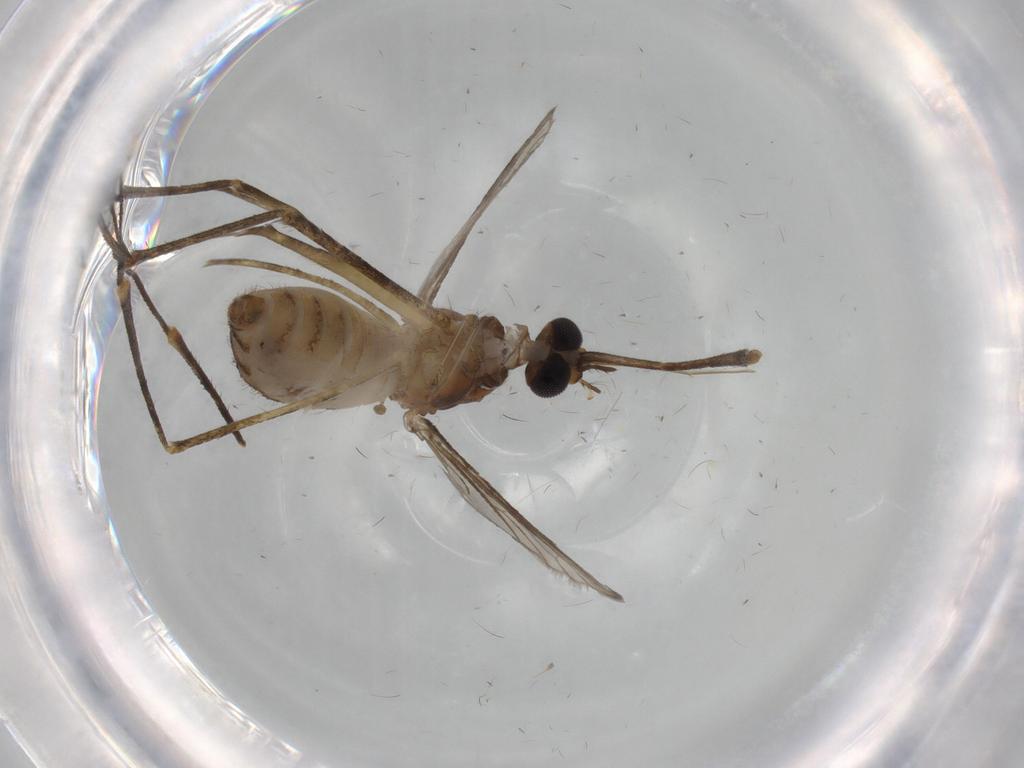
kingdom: Animalia
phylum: Arthropoda
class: Insecta
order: Diptera
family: Culicidae
